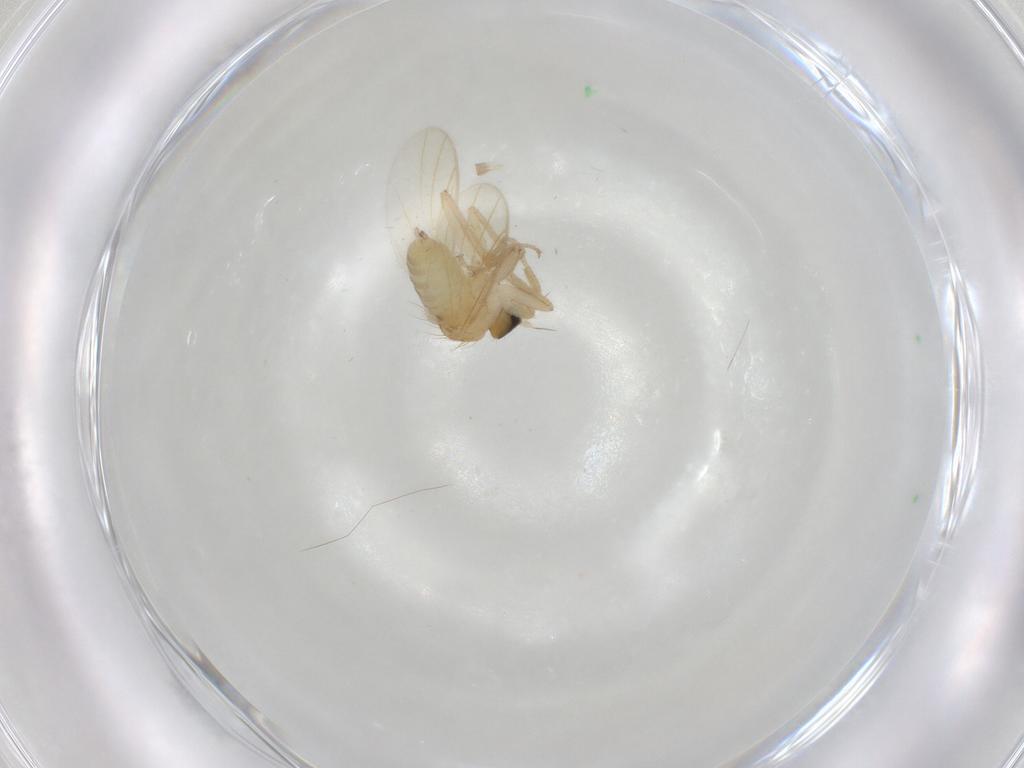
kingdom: Animalia
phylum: Arthropoda
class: Insecta
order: Diptera
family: Hybotidae
